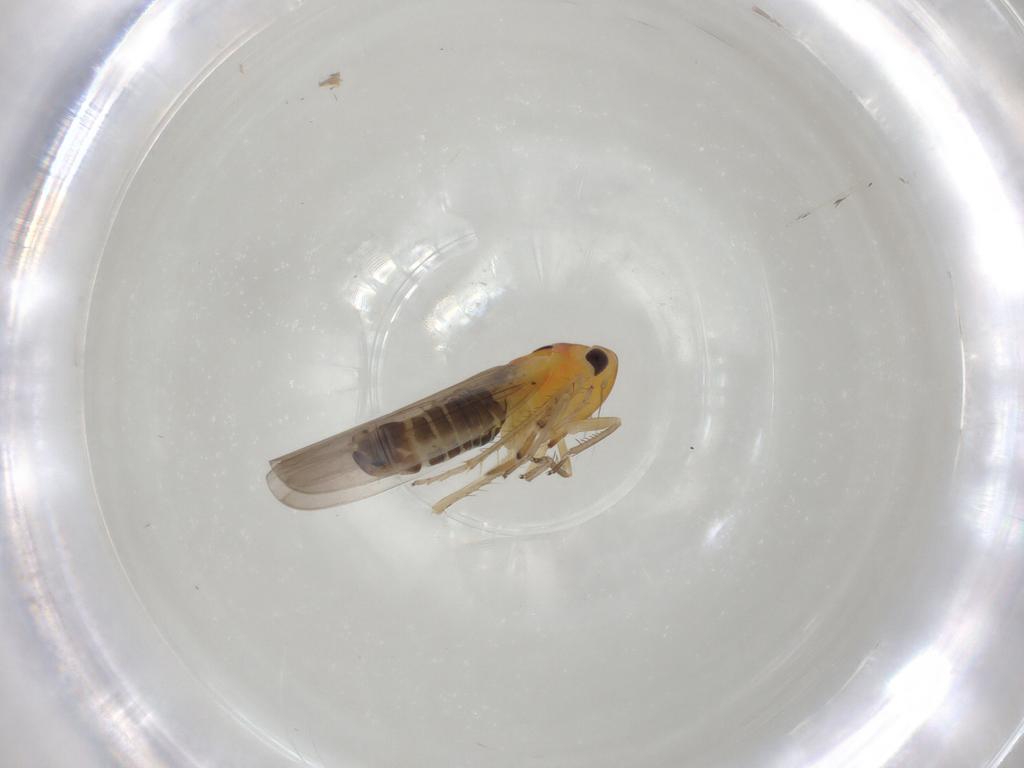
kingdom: Animalia
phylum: Arthropoda
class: Insecta
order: Hemiptera
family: Cicadellidae
